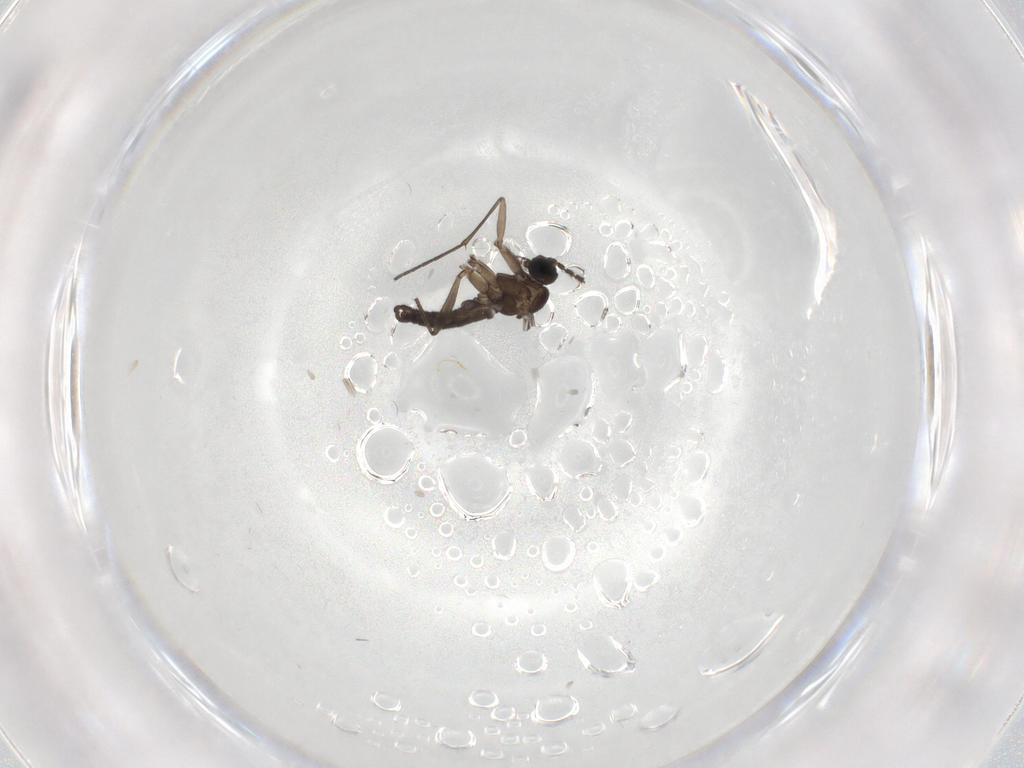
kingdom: Animalia
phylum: Arthropoda
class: Insecta
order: Diptera
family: Sciaridae
